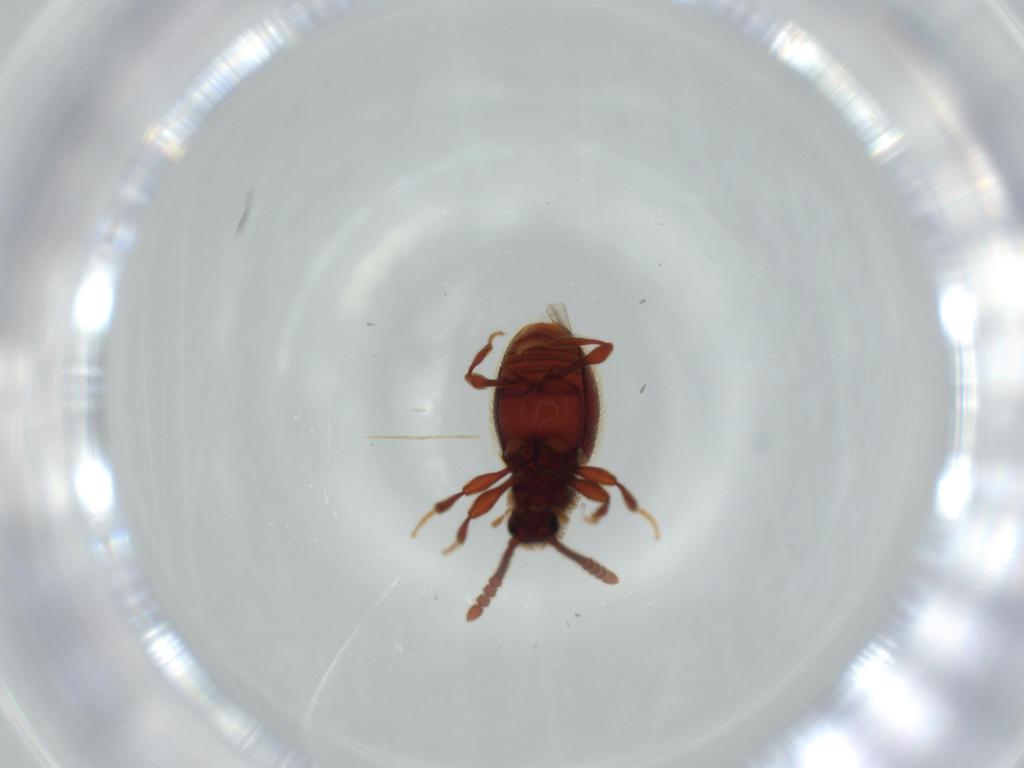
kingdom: Animalia
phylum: Arthropoda
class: Insecta
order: Coleoptera
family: Staphylinidae
